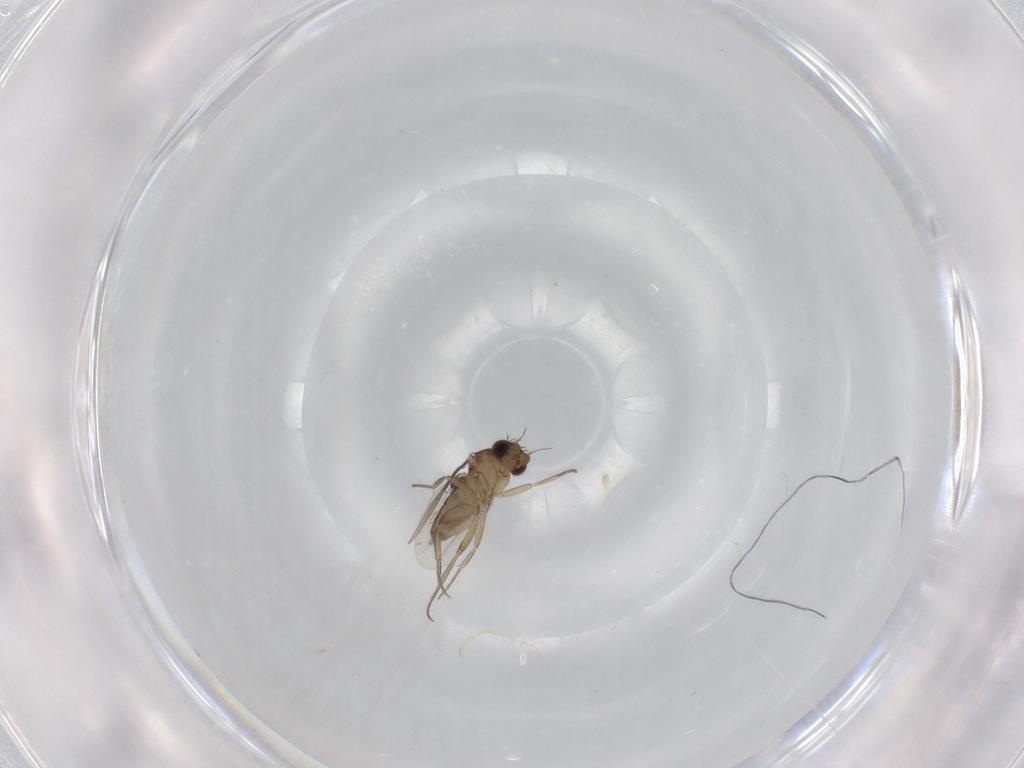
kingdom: Animalia
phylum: Arthropoda
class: Insecta
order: Diptera
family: Phoridae
